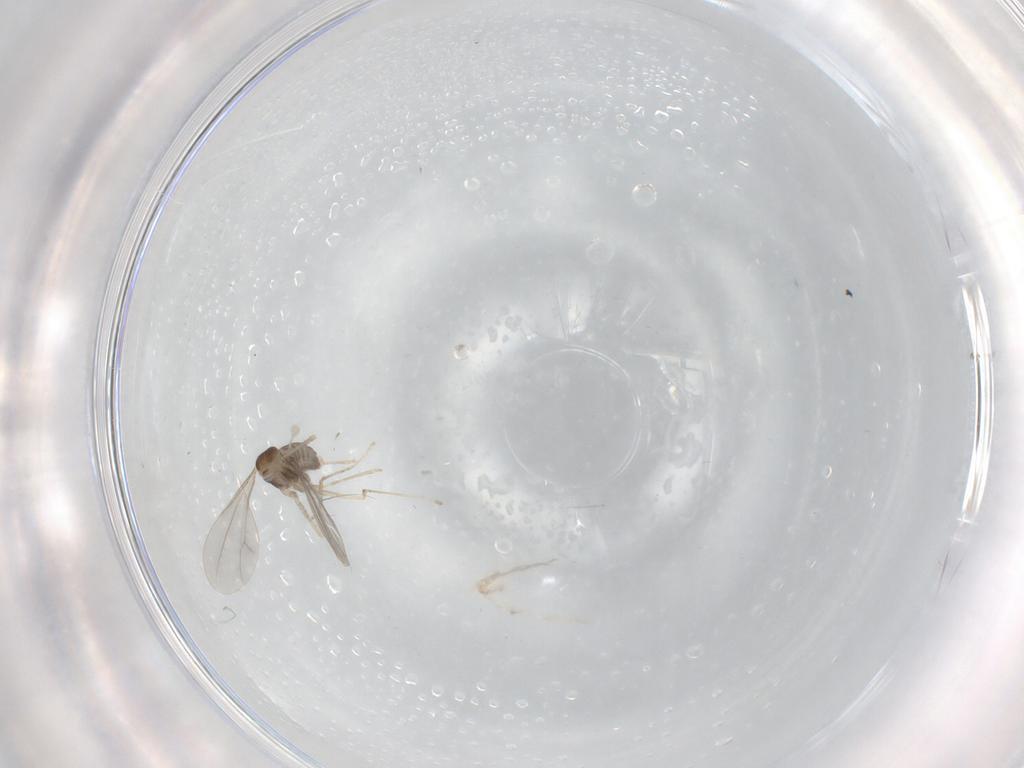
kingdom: Animalia
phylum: Arthropoda
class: Insecta
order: Diptera
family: Cecidomyiidae
